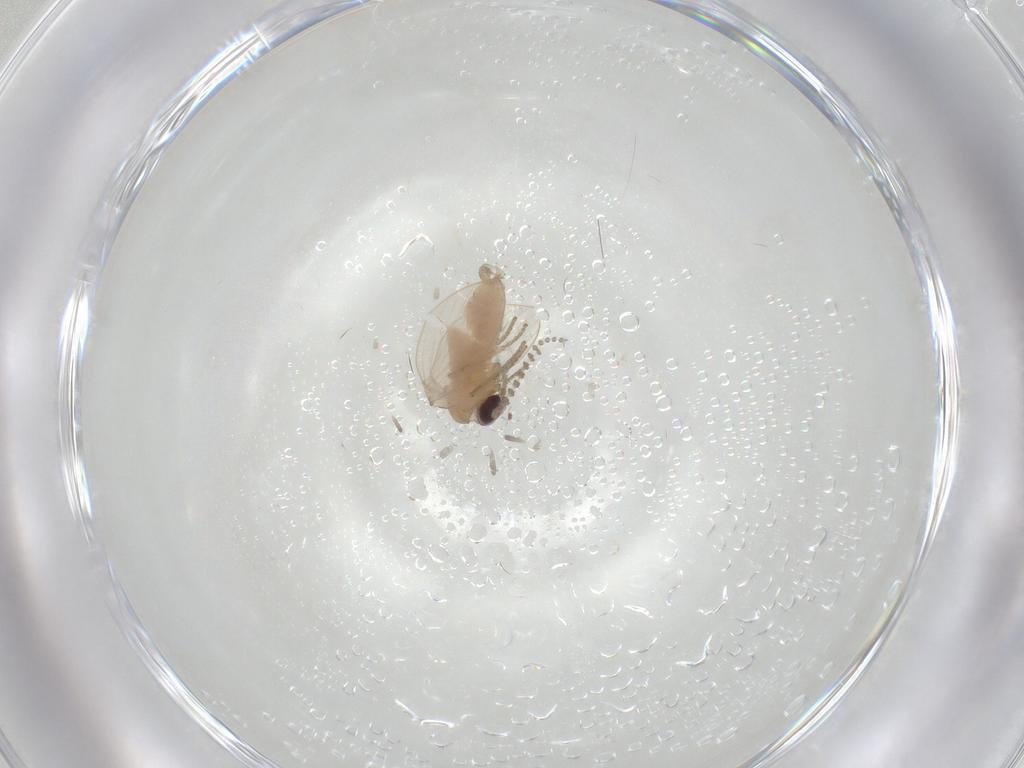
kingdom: Animalia
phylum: Arthropoda
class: Insecta
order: Diptera
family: Psychodidae
